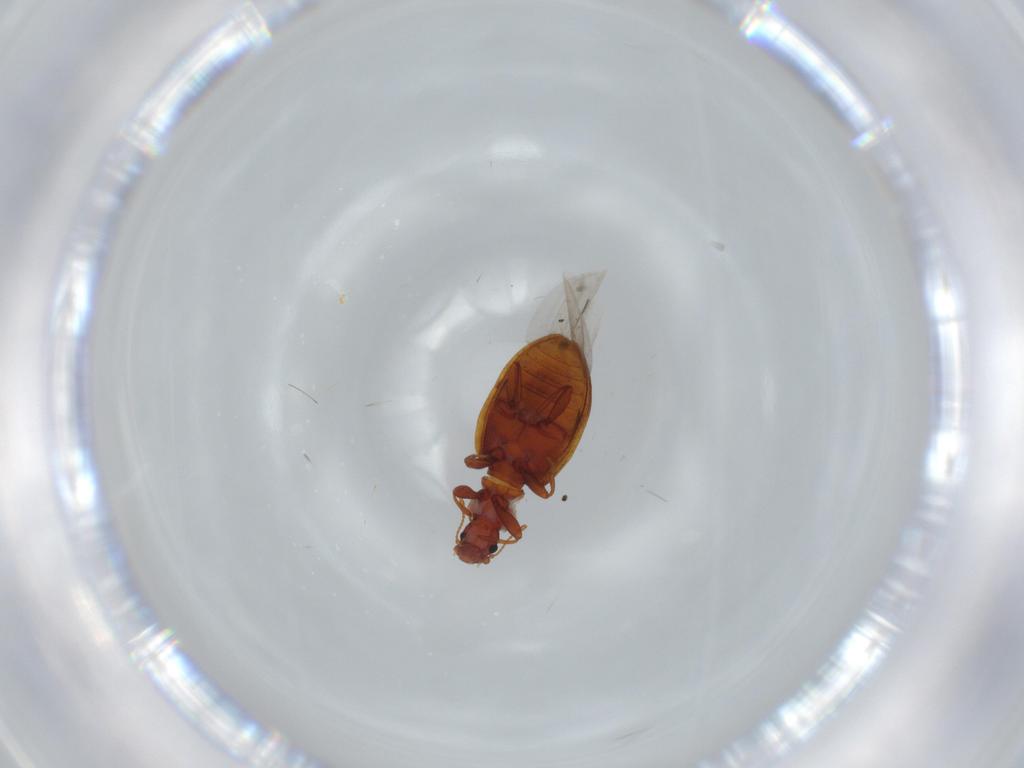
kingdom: Animalia
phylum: Arthropoda
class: Insecta
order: Coleoptera
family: Latridiidae
